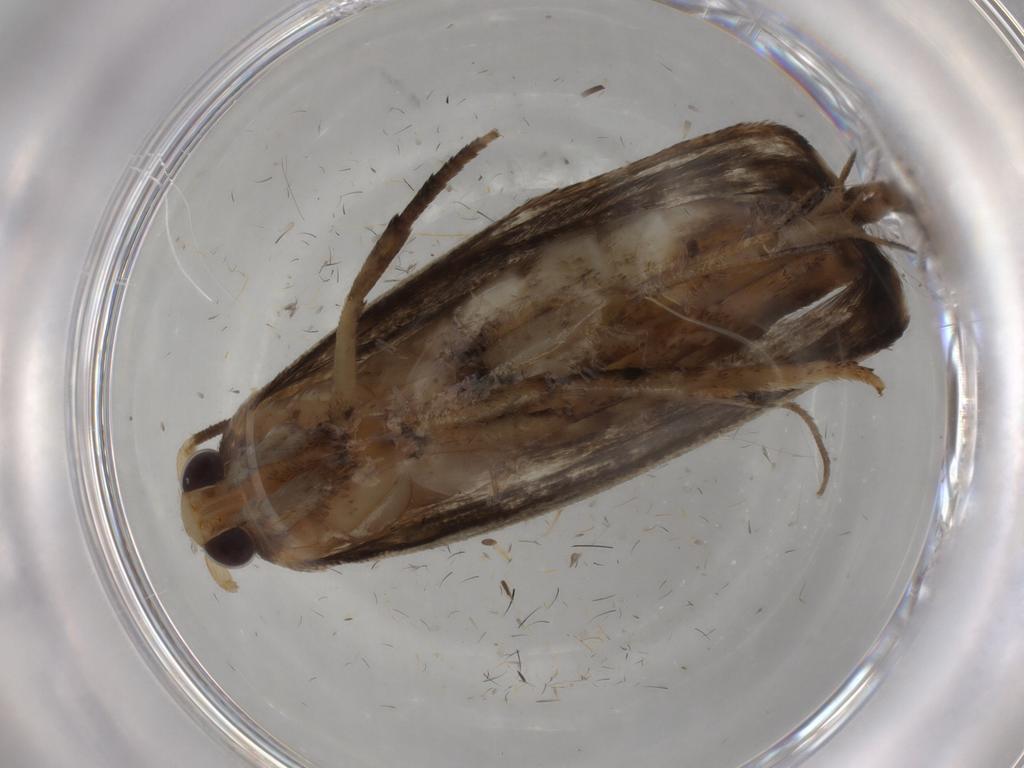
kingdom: Animalia
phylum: Arthropoda
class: Insecta
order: Lepidoptera
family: Yponomeutidae
